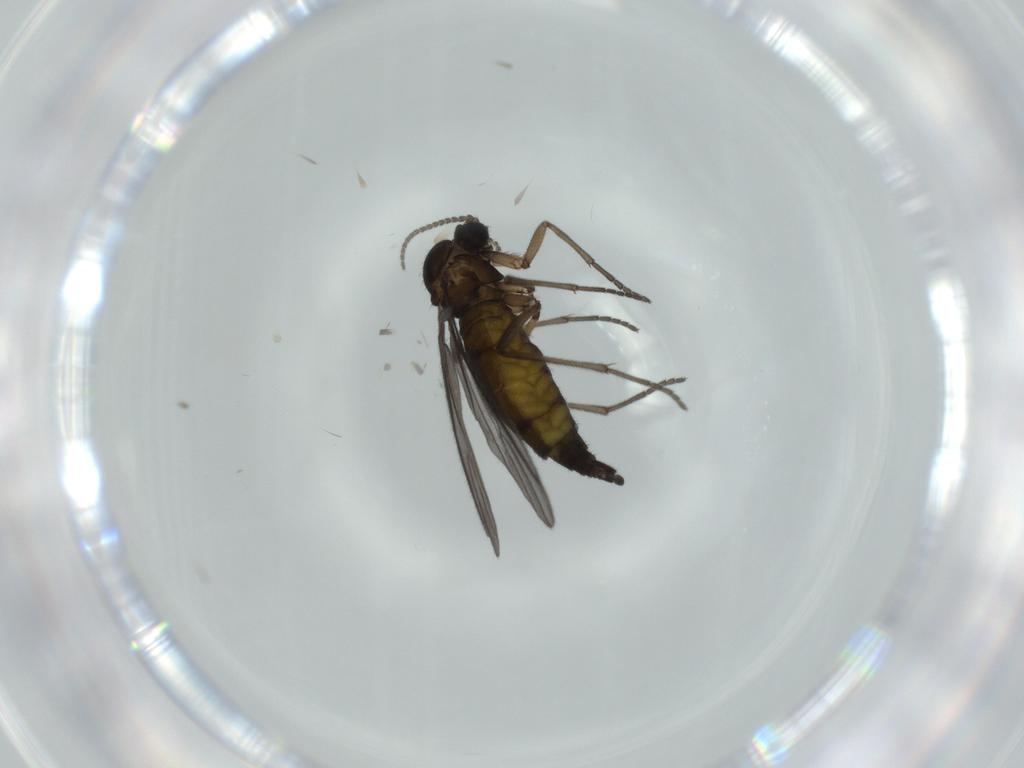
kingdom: Animalia
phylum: Arthropoda
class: Insecta
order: Diptera
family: Sciaridae
